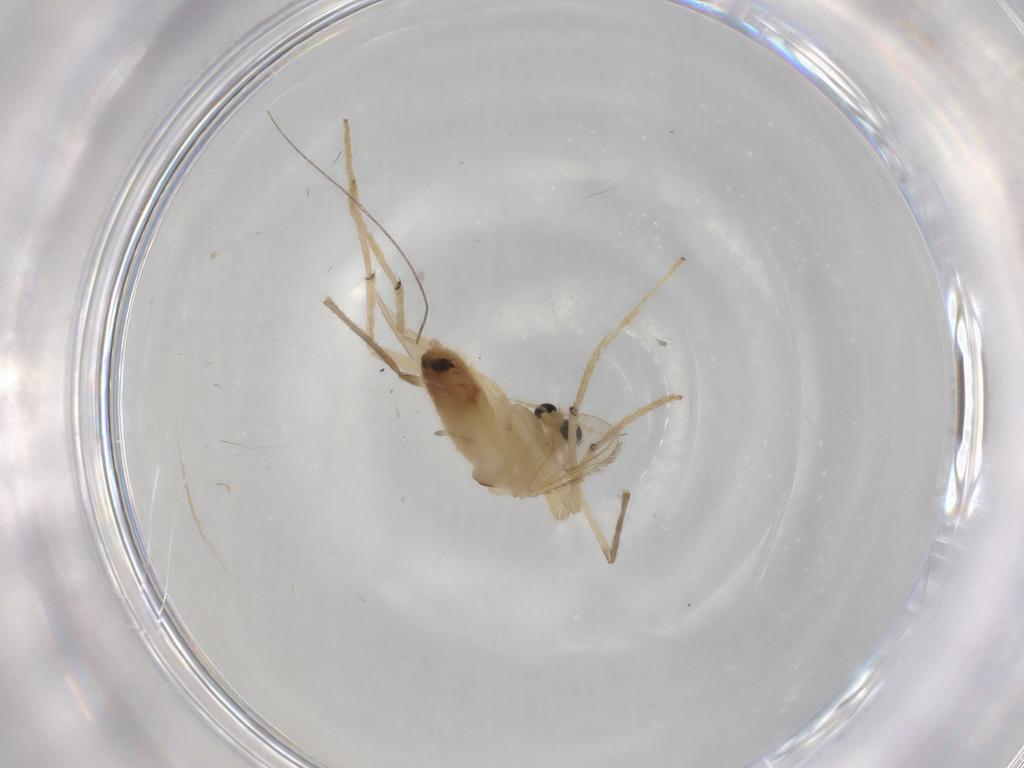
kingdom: Animalia
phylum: Arthropoda
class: Insecta
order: Diptera
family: Chironomidae
